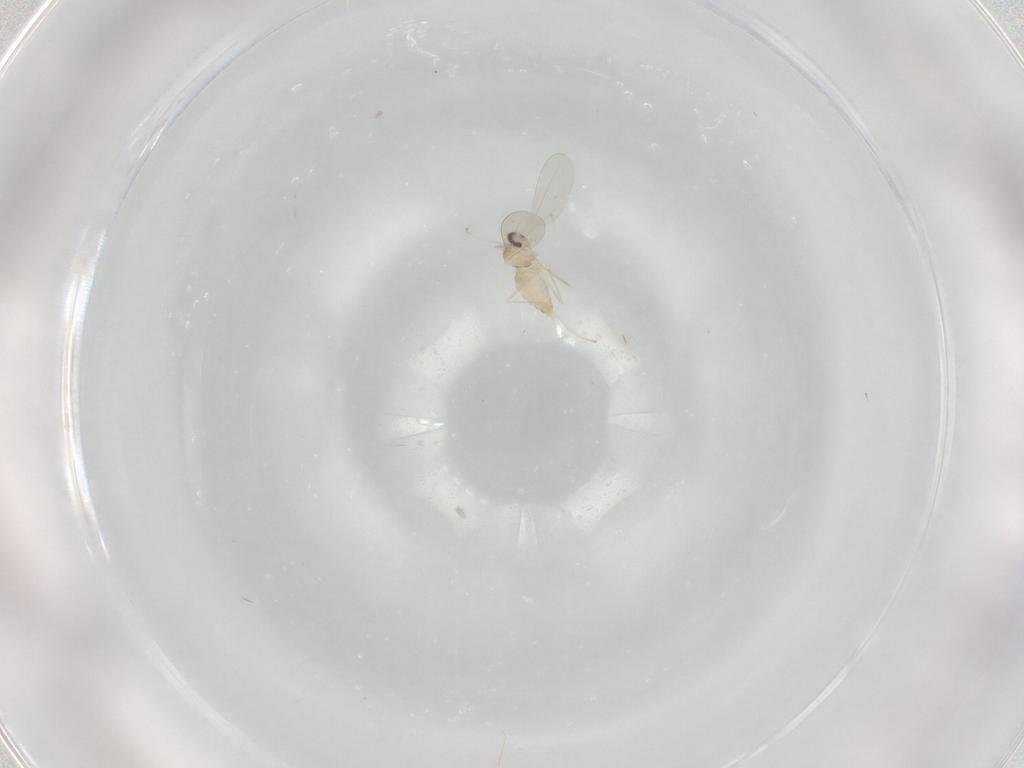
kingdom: Animalia
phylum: Arthropoda
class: Insecta
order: Diptera
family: Cecidomyiidae
